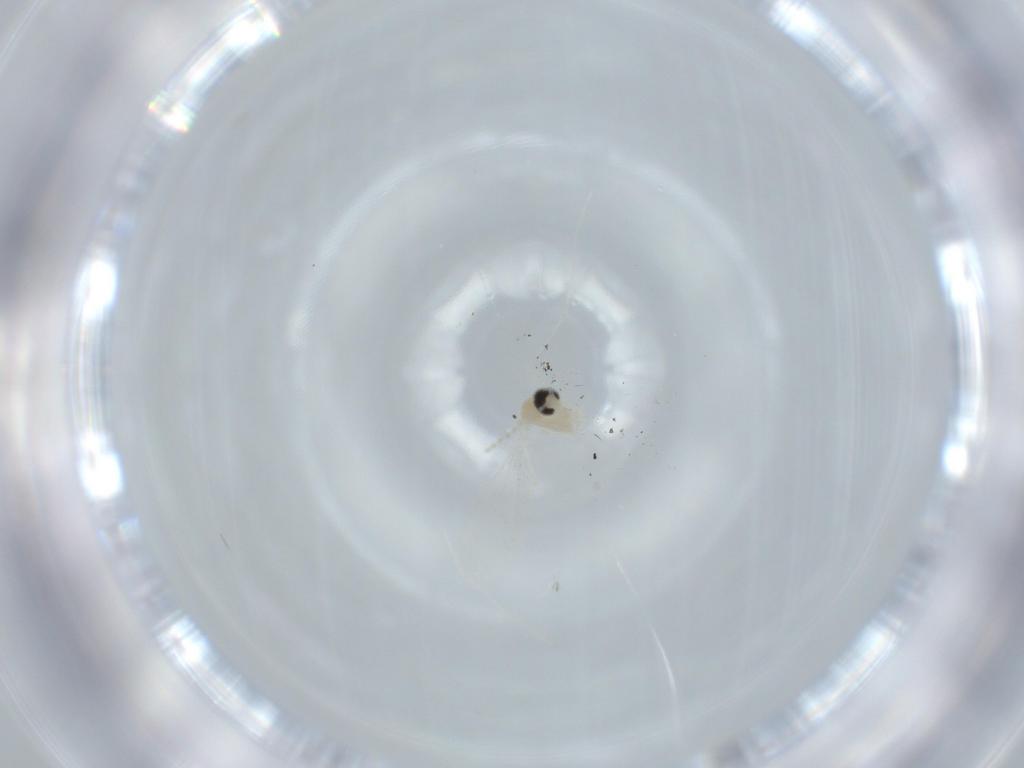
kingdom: Animalia
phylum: Arthropoda
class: Insecta
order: Diptera
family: Cecidomyiidae
